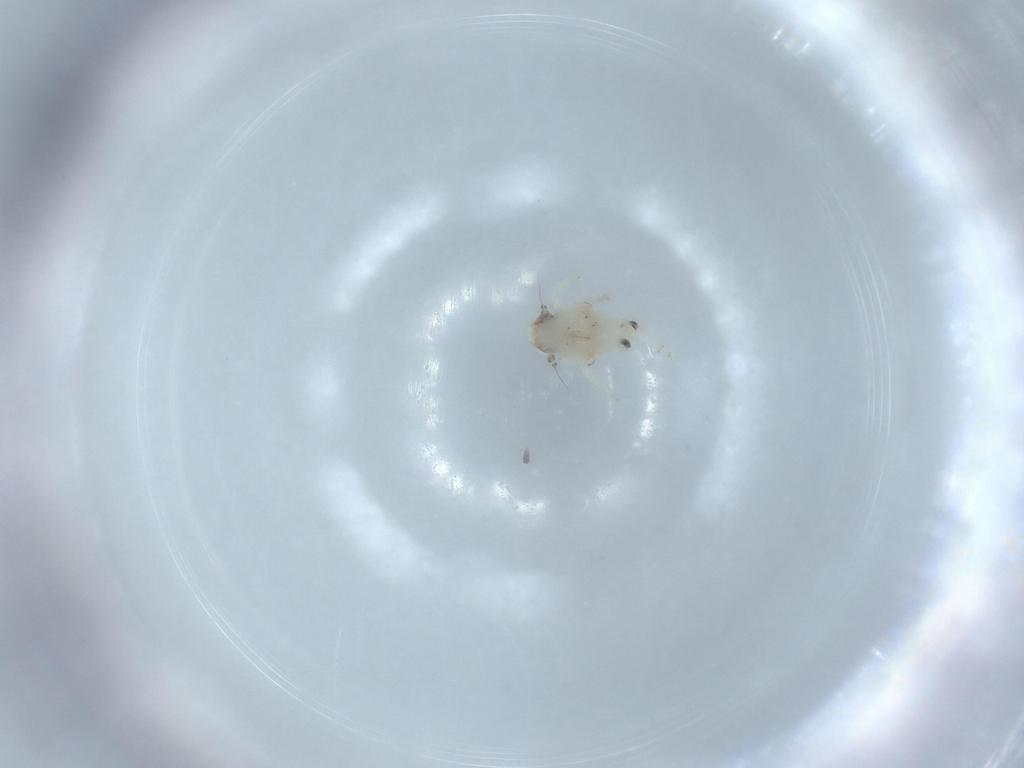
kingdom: Animalia
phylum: Arthropoda
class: Insecta
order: Hemiptera
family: Nogodinidae
